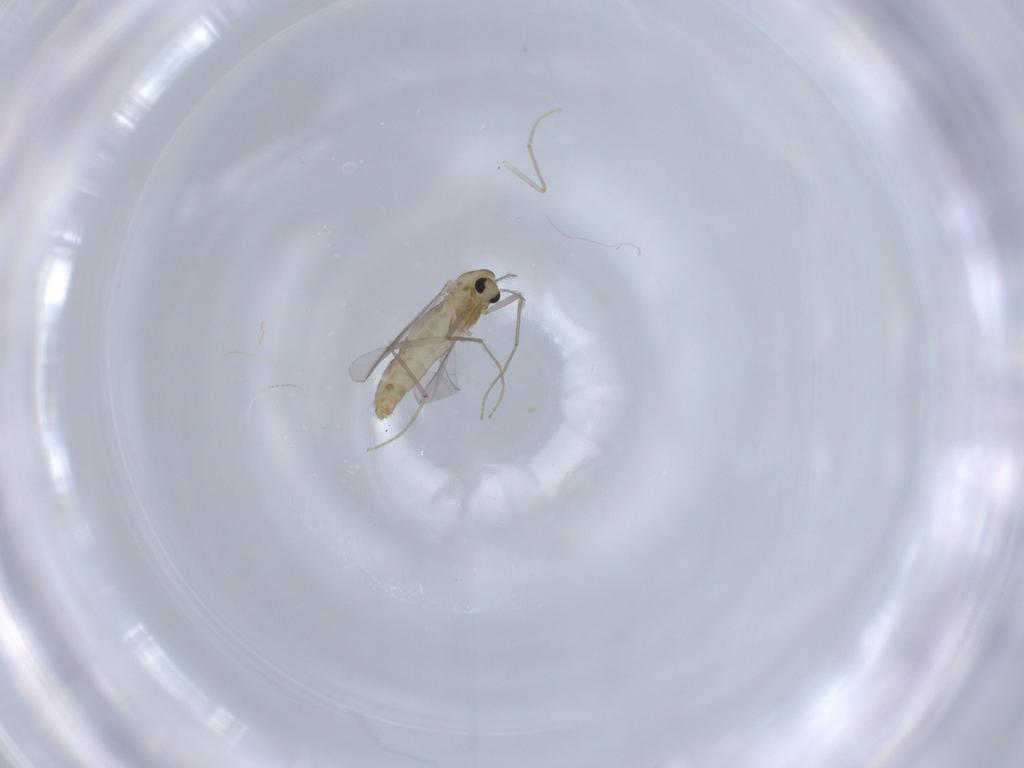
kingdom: Animalia
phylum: Arthropoda
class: Insecta
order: Diptera
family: Chironomidae
